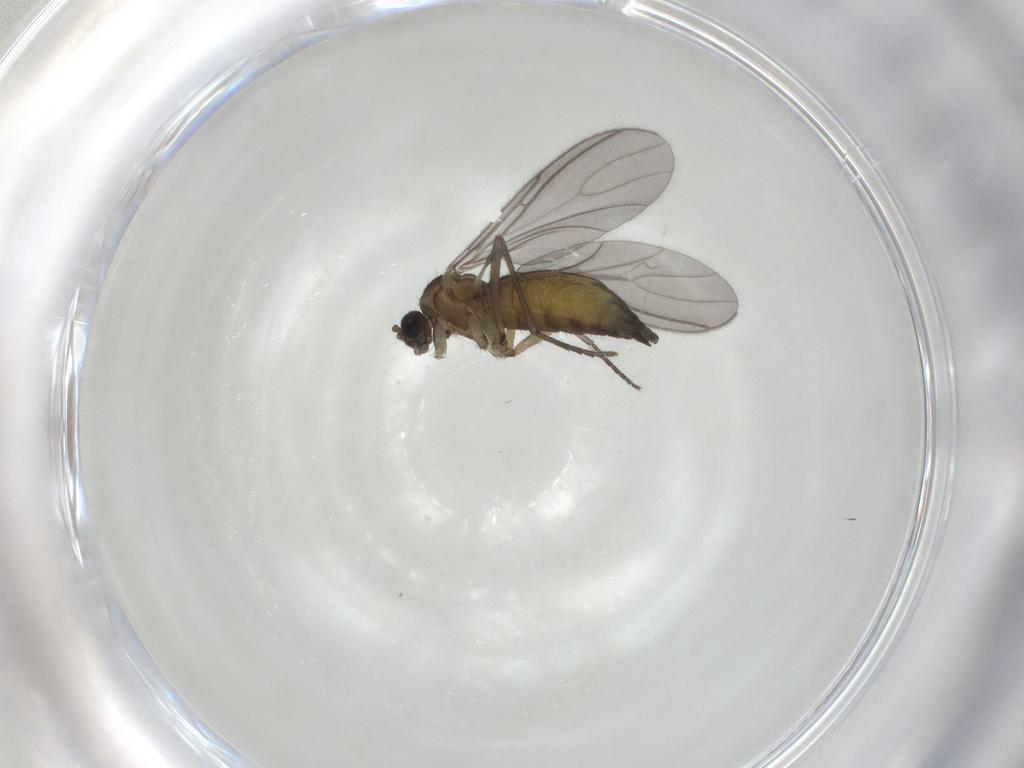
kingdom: Animalia
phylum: Arthropoda
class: Insecta
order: Diptera
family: Sciaridae
